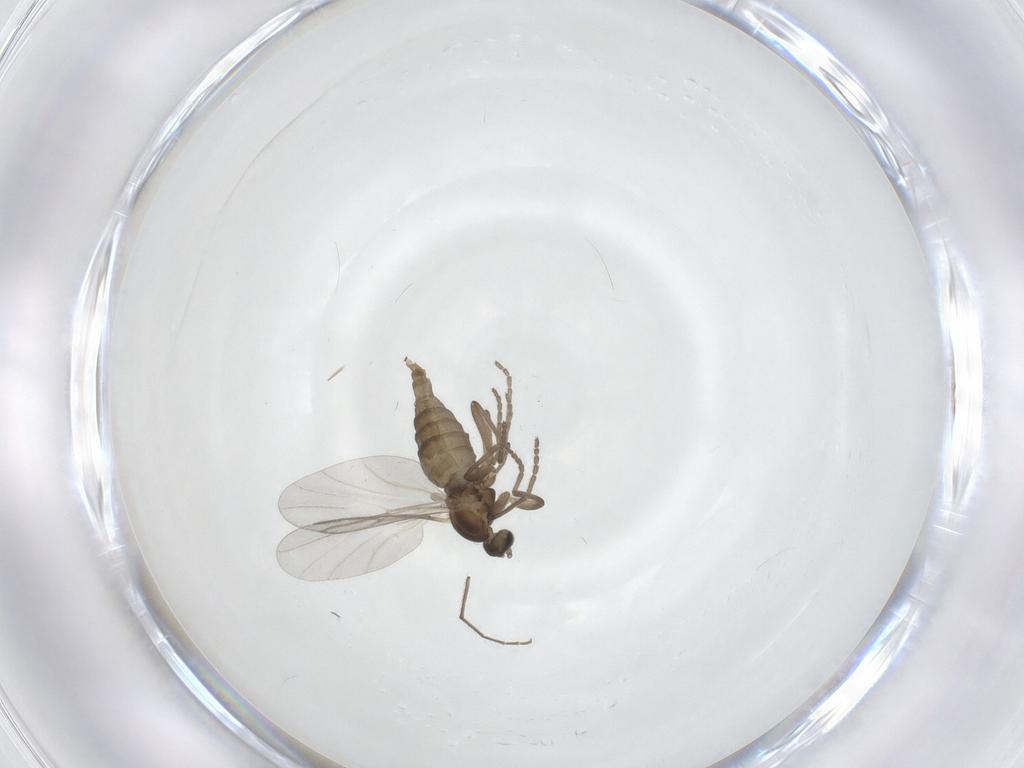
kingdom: Animalia
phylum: Arthropoda
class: Insecta
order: Diptera
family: Cecidomyiidae
